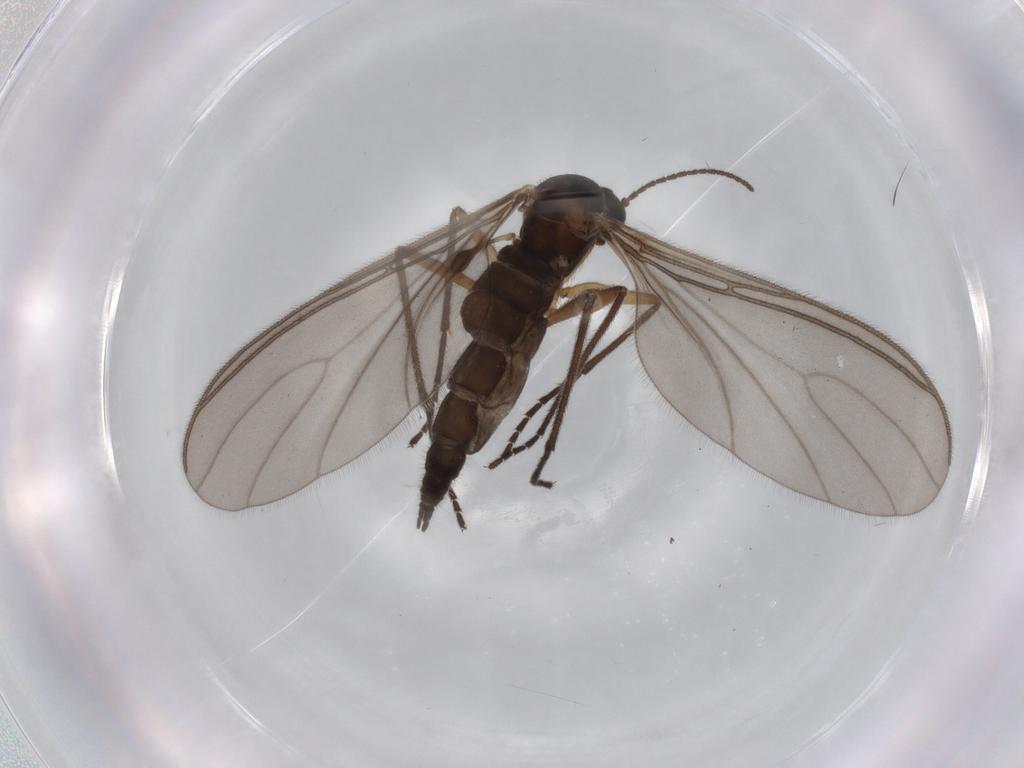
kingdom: Animalia
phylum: Arthropoda
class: Insecta
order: Diptera
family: Sciaridae
